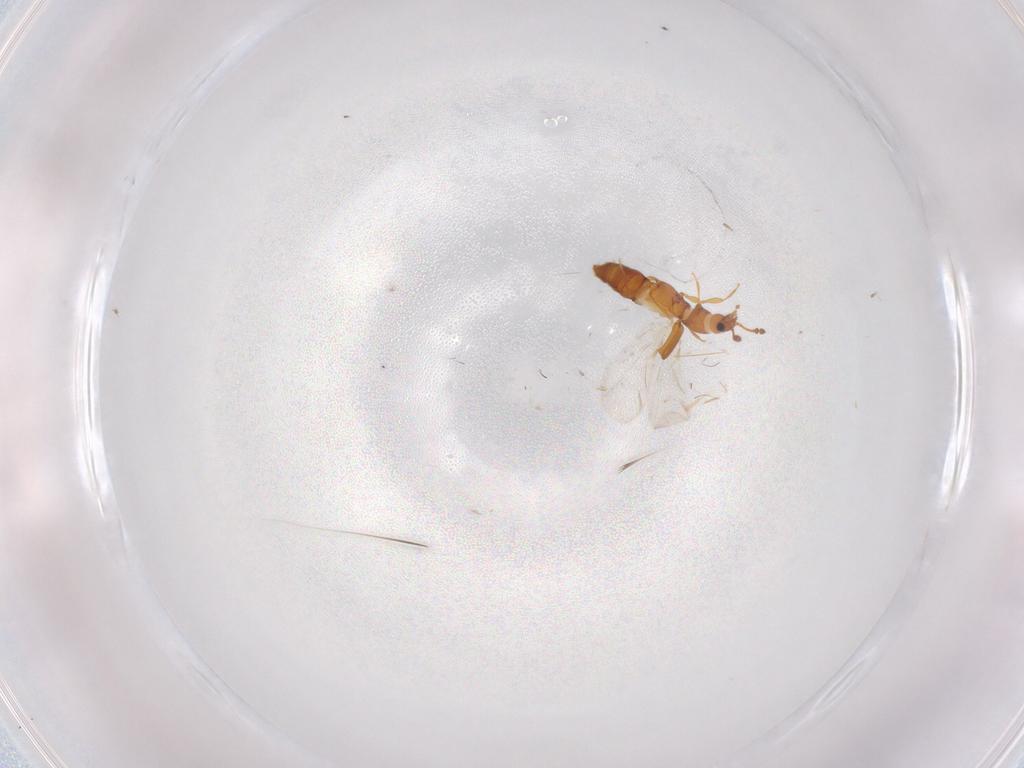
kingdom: Animalia
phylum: Arthropoda
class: Insecta
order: Coleoptera
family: Staphylinidae
